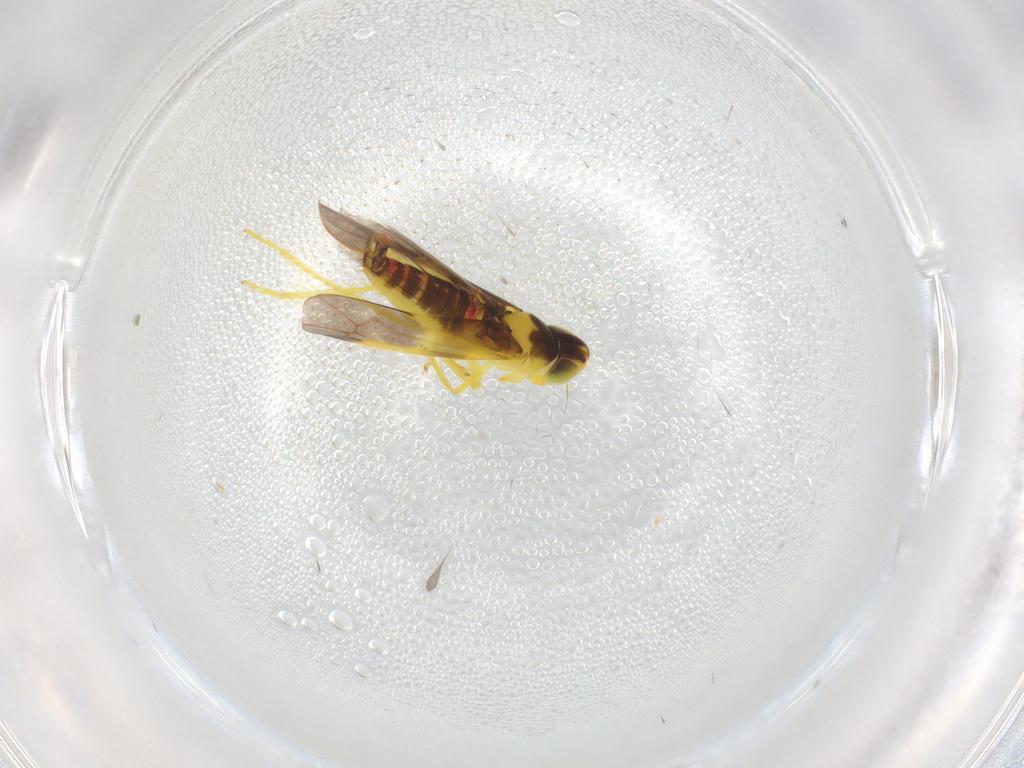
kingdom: Animalia
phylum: Arthropoda
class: Insecta
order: Hemiptera
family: Cicadellidae
